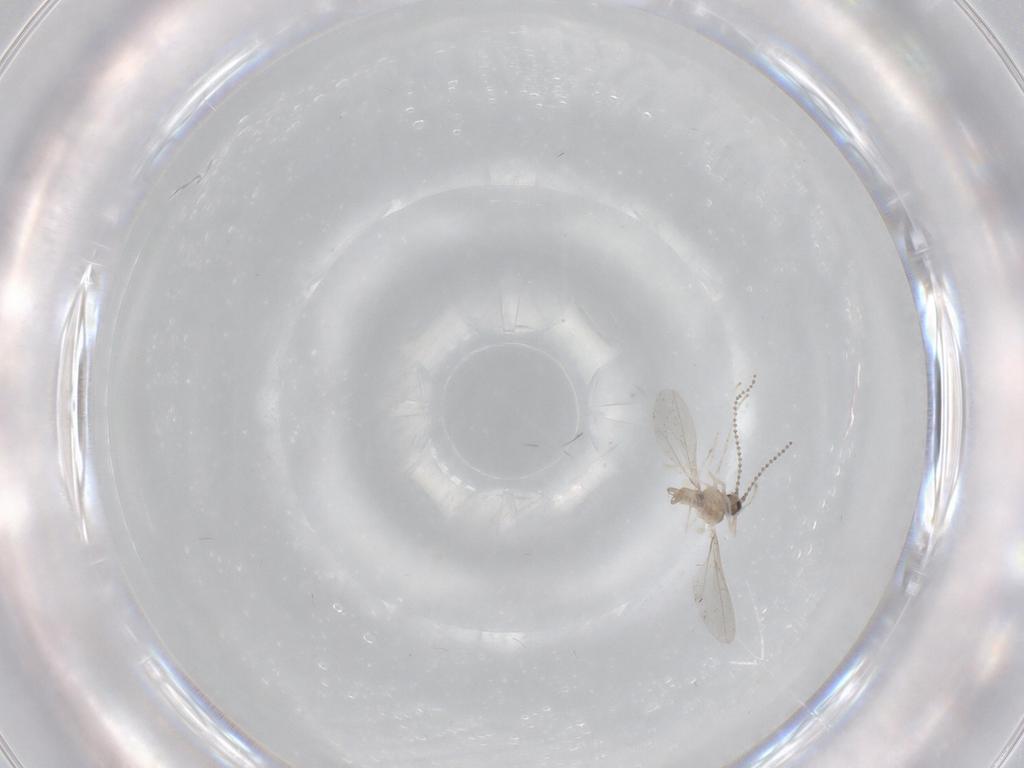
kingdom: Animalia
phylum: Arthropoda
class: Insecta
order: Diptera
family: Cecidomyiidae
